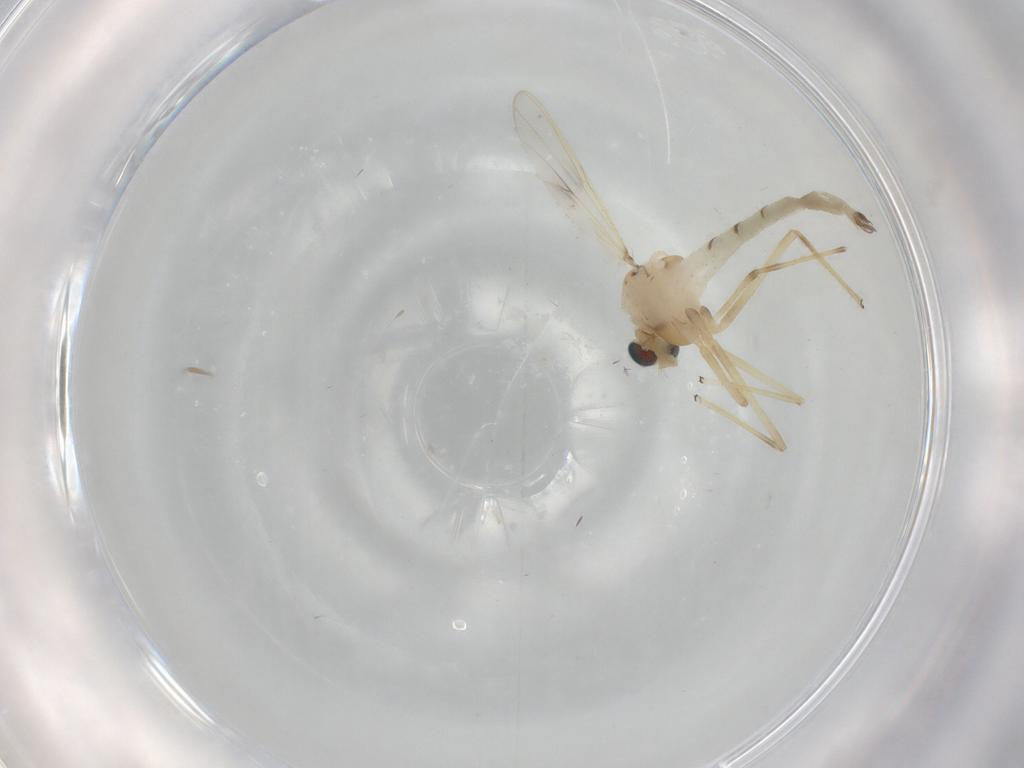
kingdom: Animalia
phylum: Arthropoda
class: Insecta
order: Diptera
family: Chironomidae
